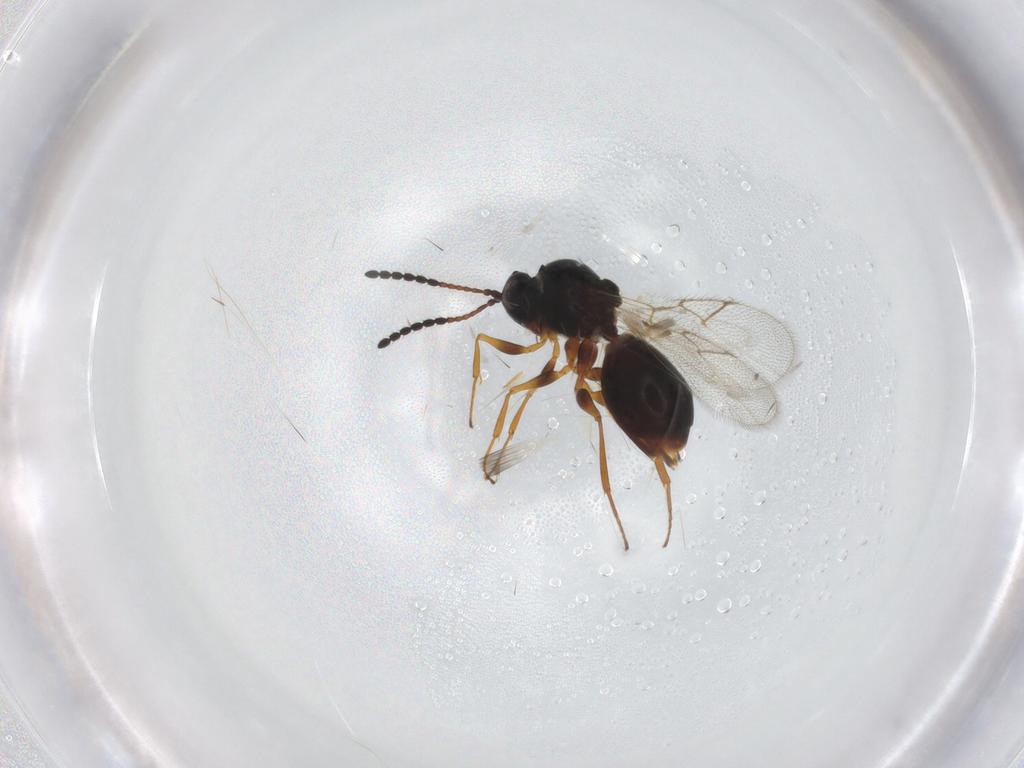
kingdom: Animalia
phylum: Arthropoda
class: Insecta
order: Hymenoptera
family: Figitidae
